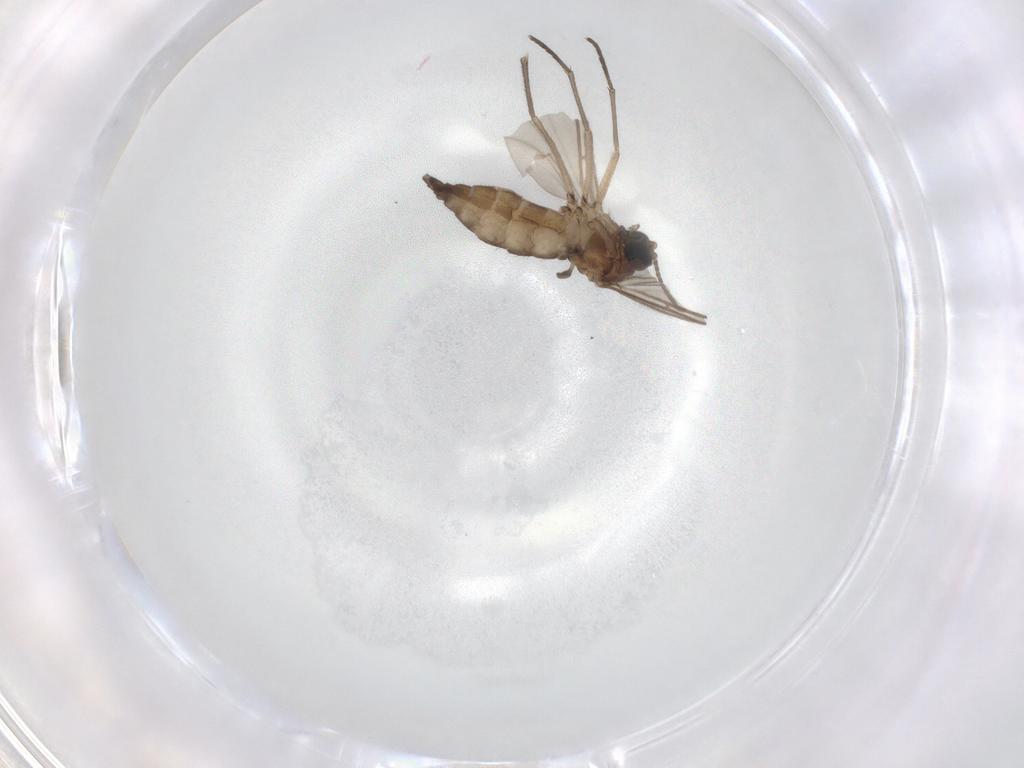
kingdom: Animalia
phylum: Arthropoda
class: Insecta
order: Diptera
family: Sciaridae
